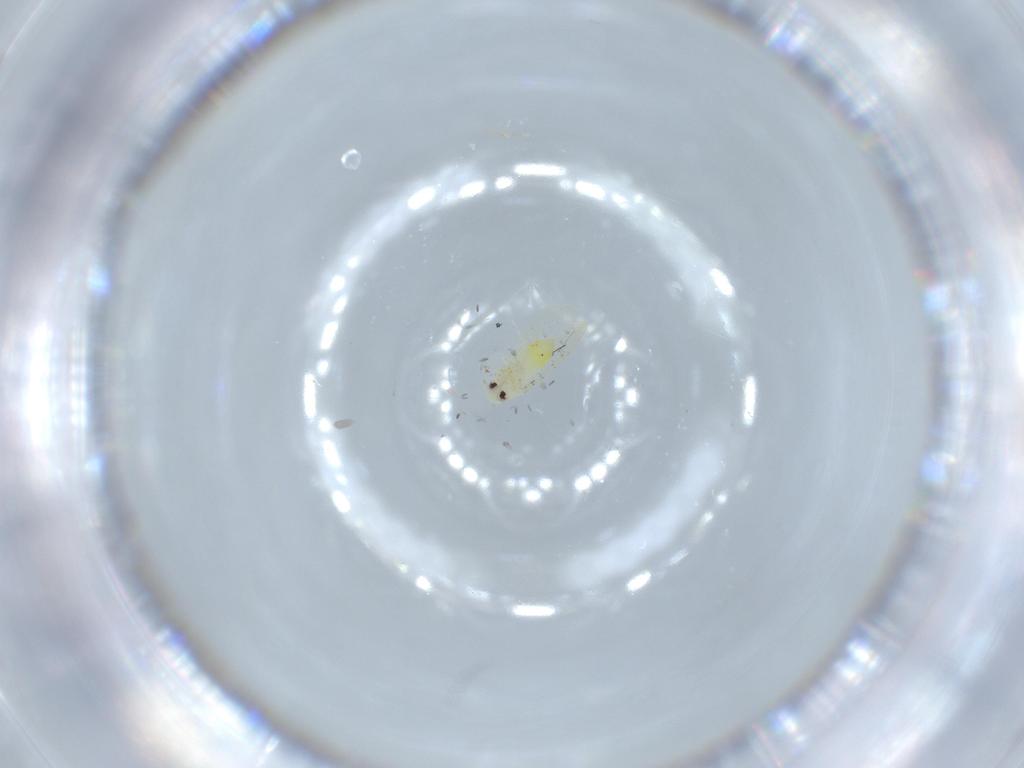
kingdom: Animalia
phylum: Arthropoda
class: Insecta
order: Hemiptera
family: Aleyrodidae
